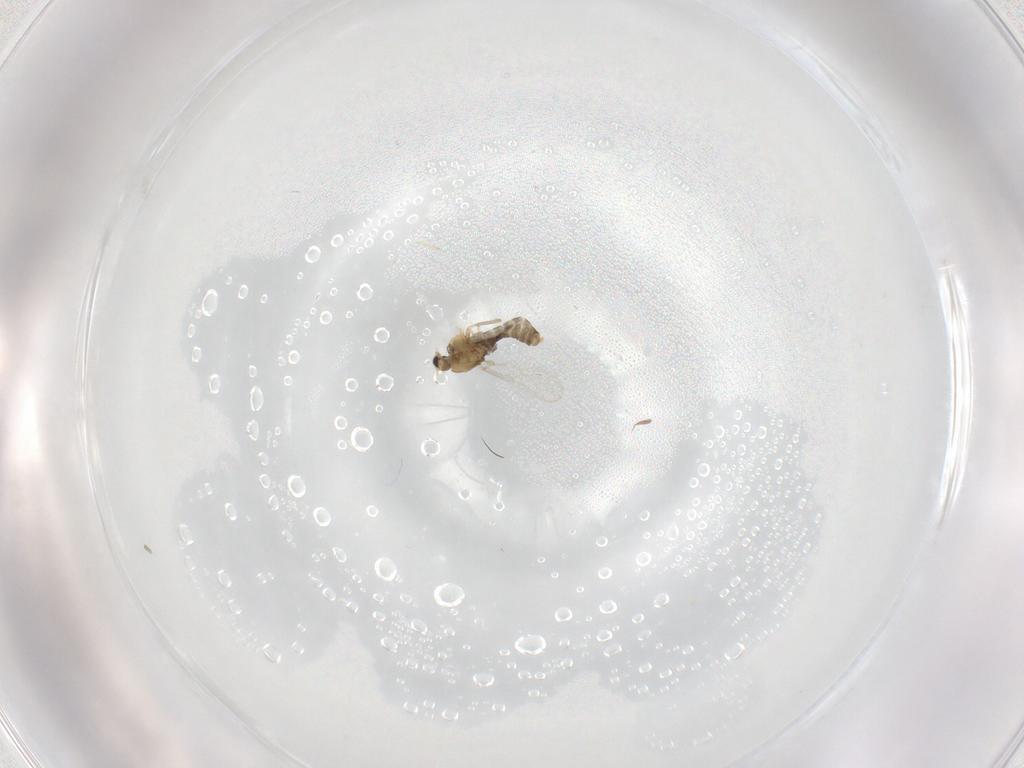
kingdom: Animalia
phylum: Arthropoda
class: Insecta
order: Diptera
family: Chironomidae
